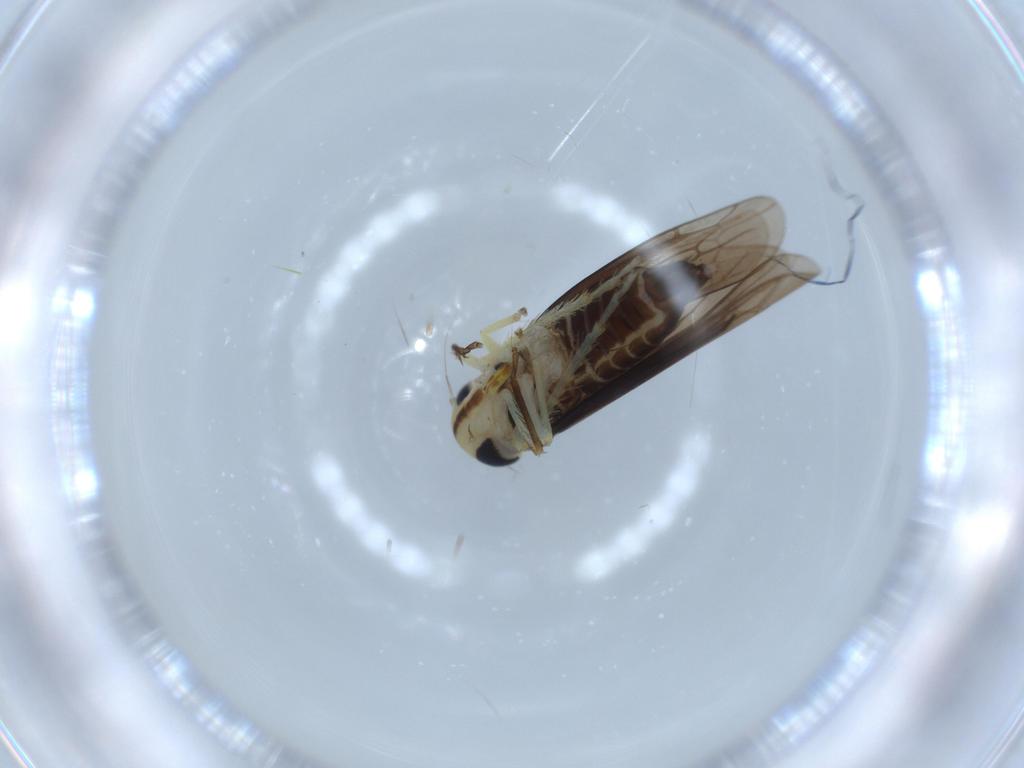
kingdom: Animalia
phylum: Arthropoda
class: Insecta
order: Hemiptera
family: Cicadellidae
